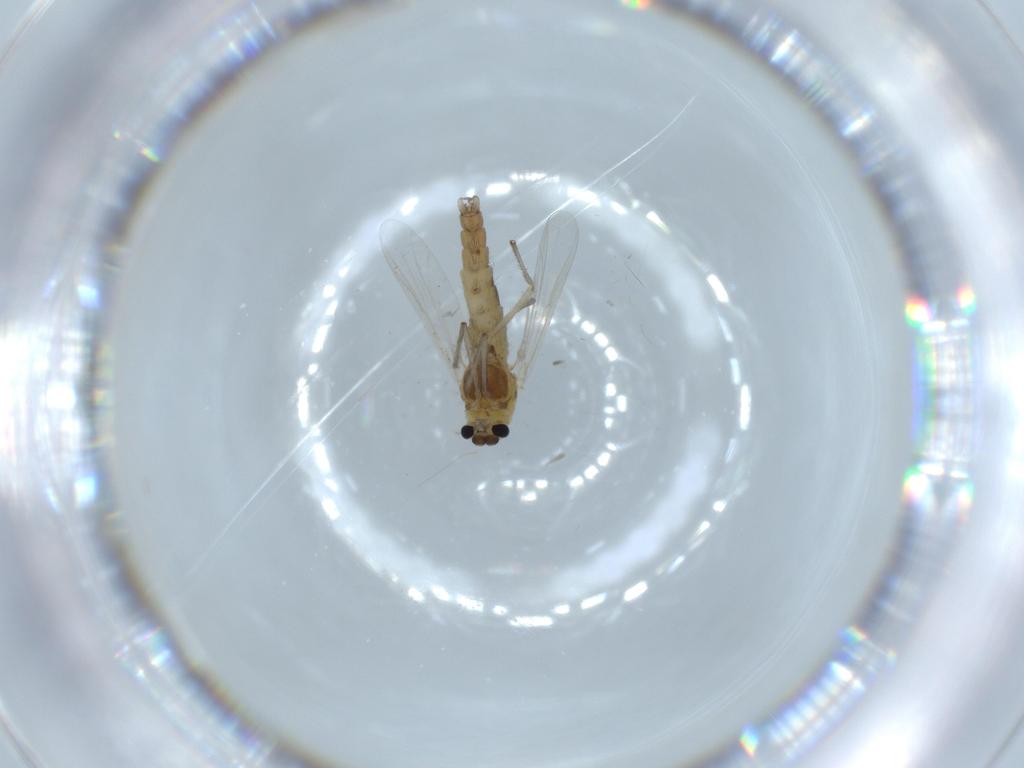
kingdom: Animalia
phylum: Arthropoda
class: Insecta
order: Diptera
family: Chironomidae
